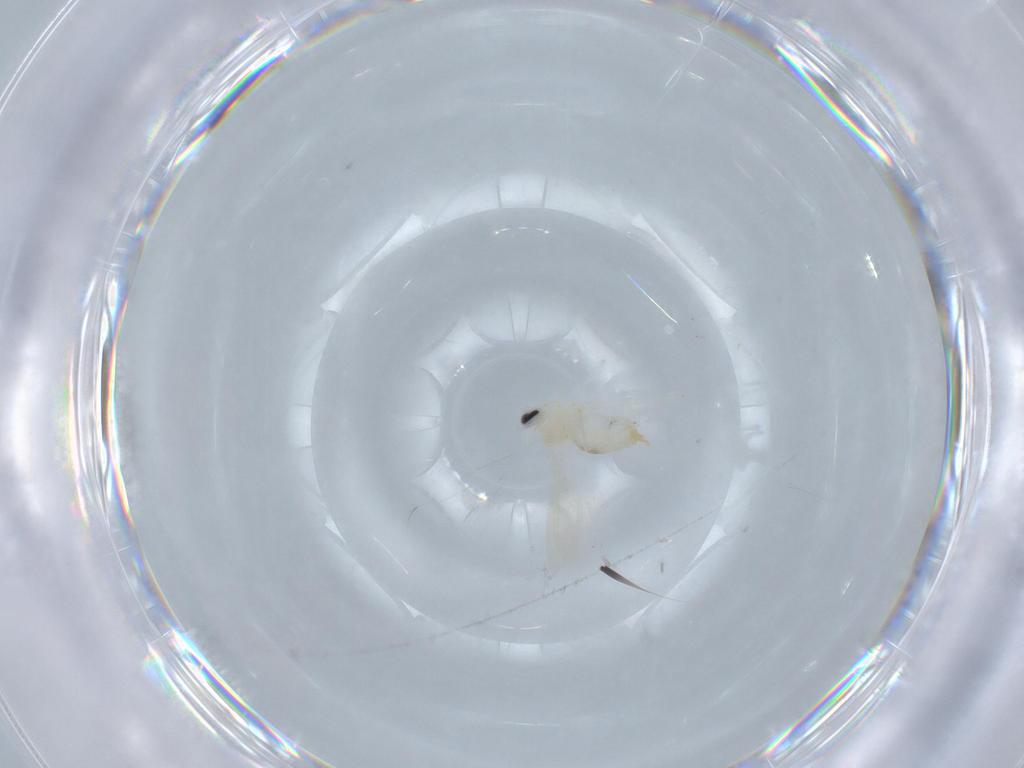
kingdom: Animalia
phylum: Arthropoda
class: Insecta
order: Diptera
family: Cecidomyiidae
